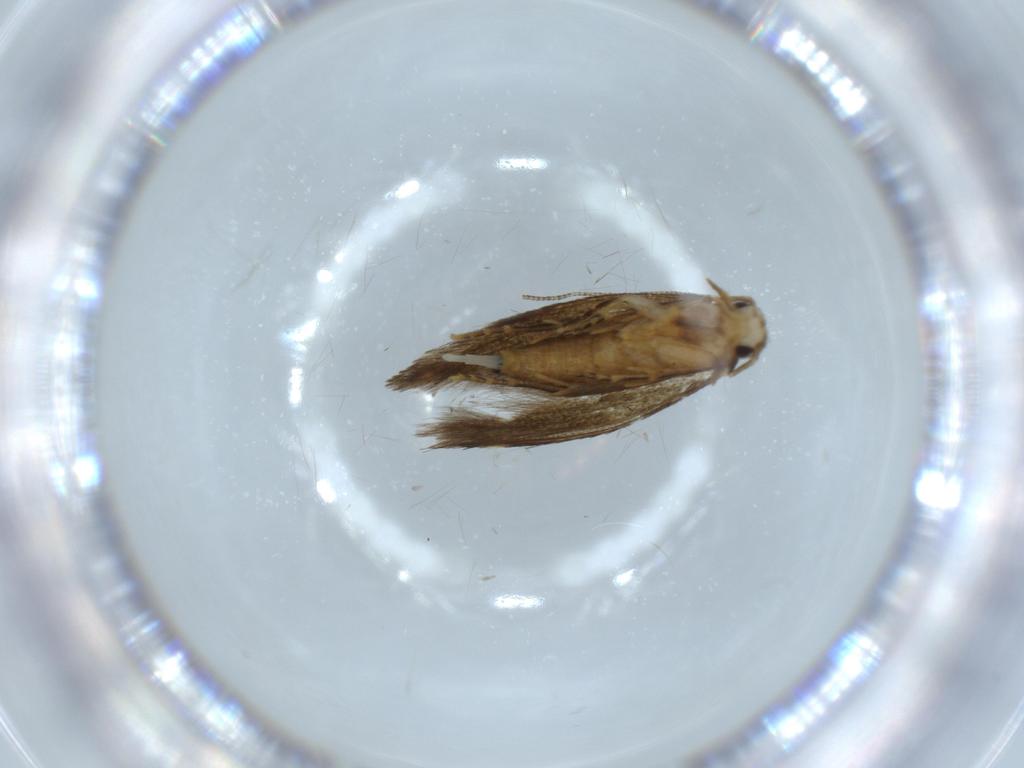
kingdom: Animalia
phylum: Arthropoda
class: Insecta
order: Lepidoptera
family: Tineidae
